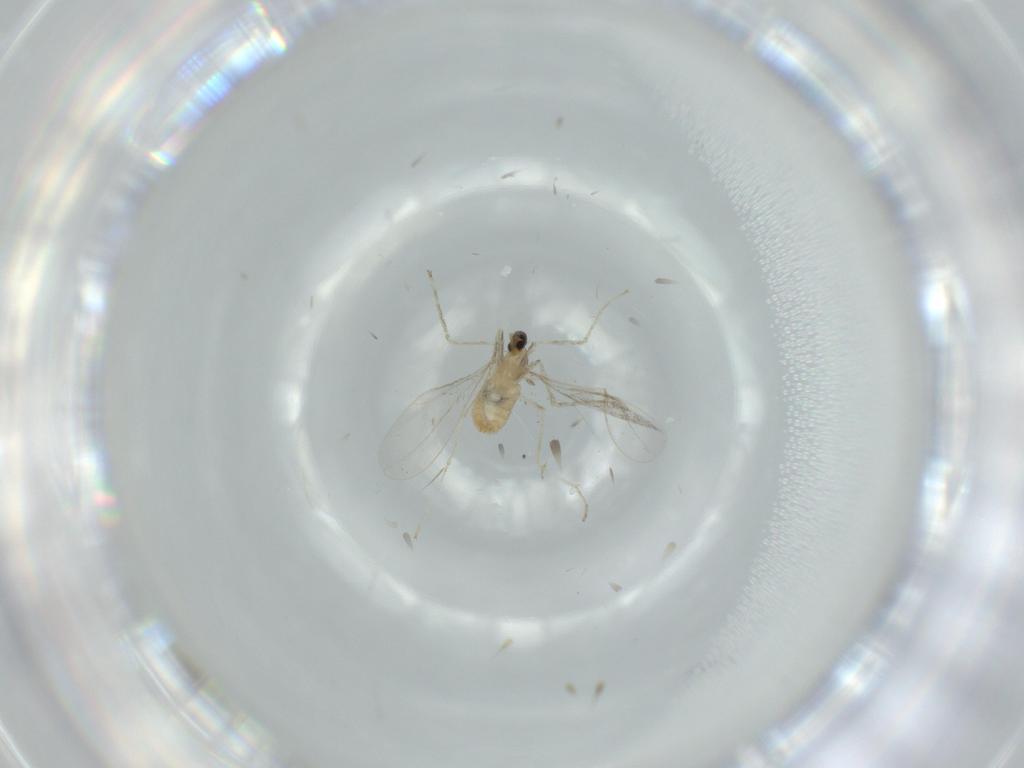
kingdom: Animalia
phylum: Arthropoda
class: Insecta
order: Diptera
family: Cecidomyiidae
